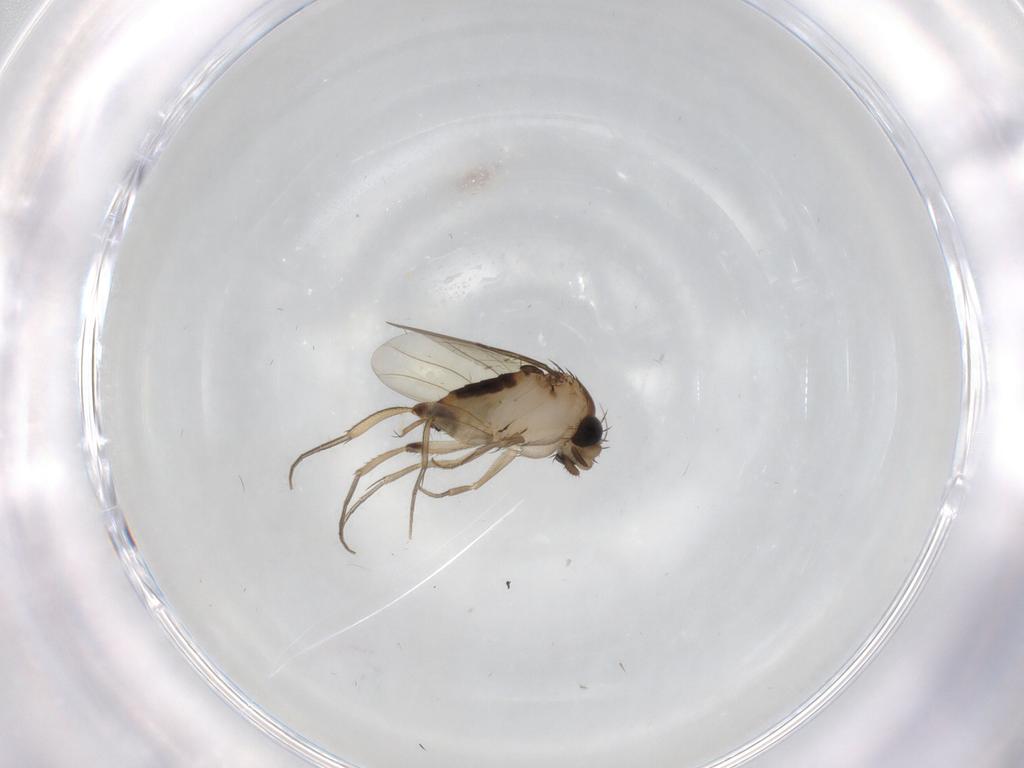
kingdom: Animalia
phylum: Arthropoda
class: Insecta
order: Diptera
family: Phoridae
